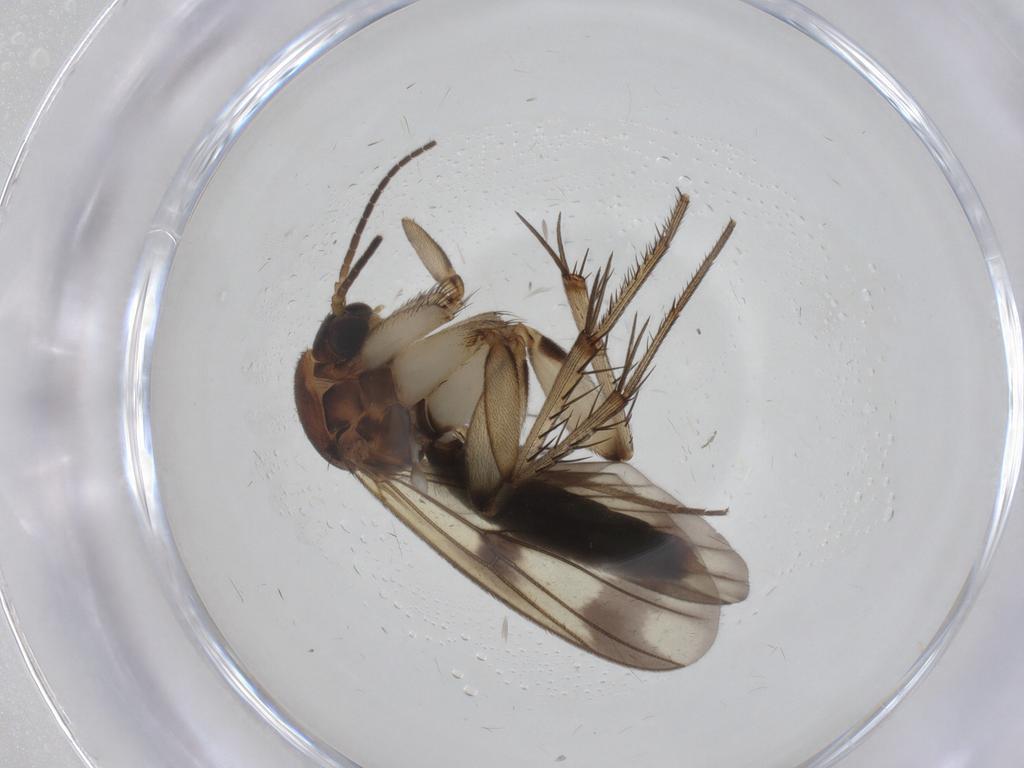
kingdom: Animalia
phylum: Arthropoda
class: Insecta
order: Diptera
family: Chironomidae
